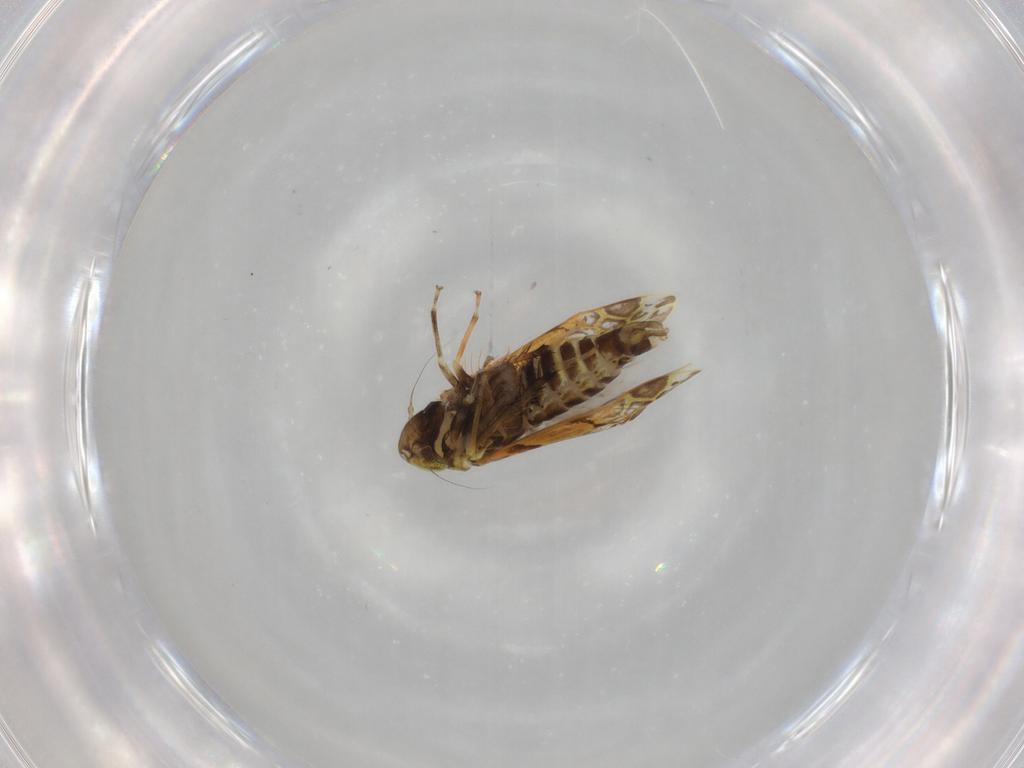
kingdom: Animalia
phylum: Arthropoda
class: Insecta
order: Hemiptera
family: Cicadellidae
